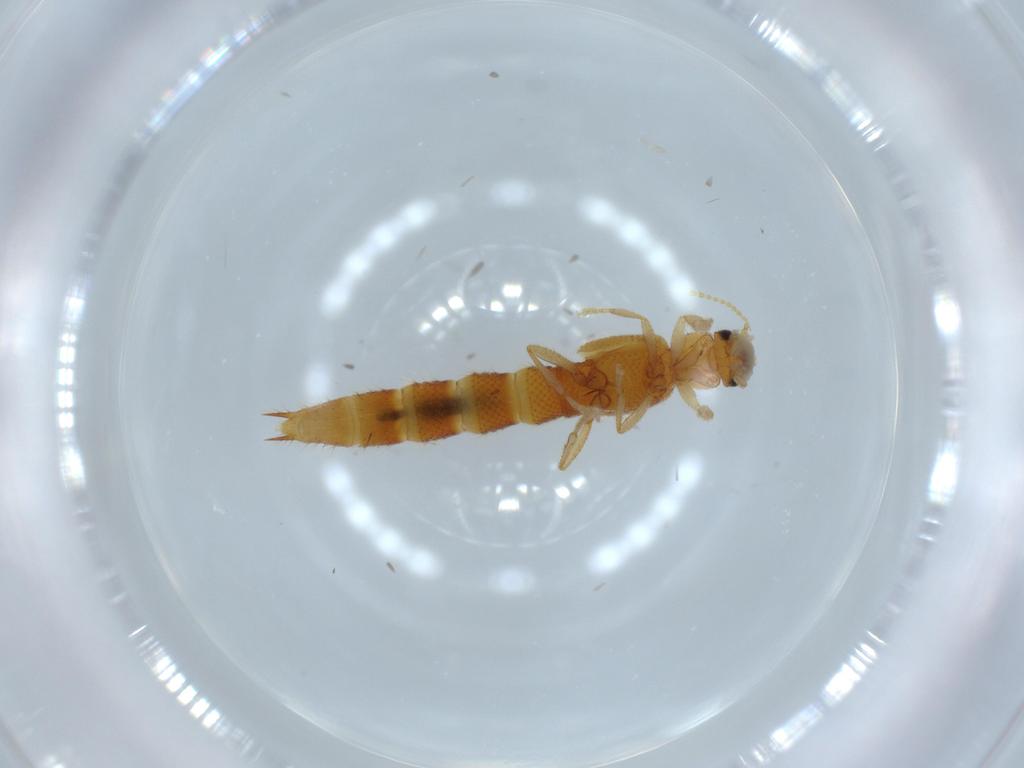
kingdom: Animalia
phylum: Arthropoda
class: Insecta
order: Coleoptera
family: Staphylinidae
